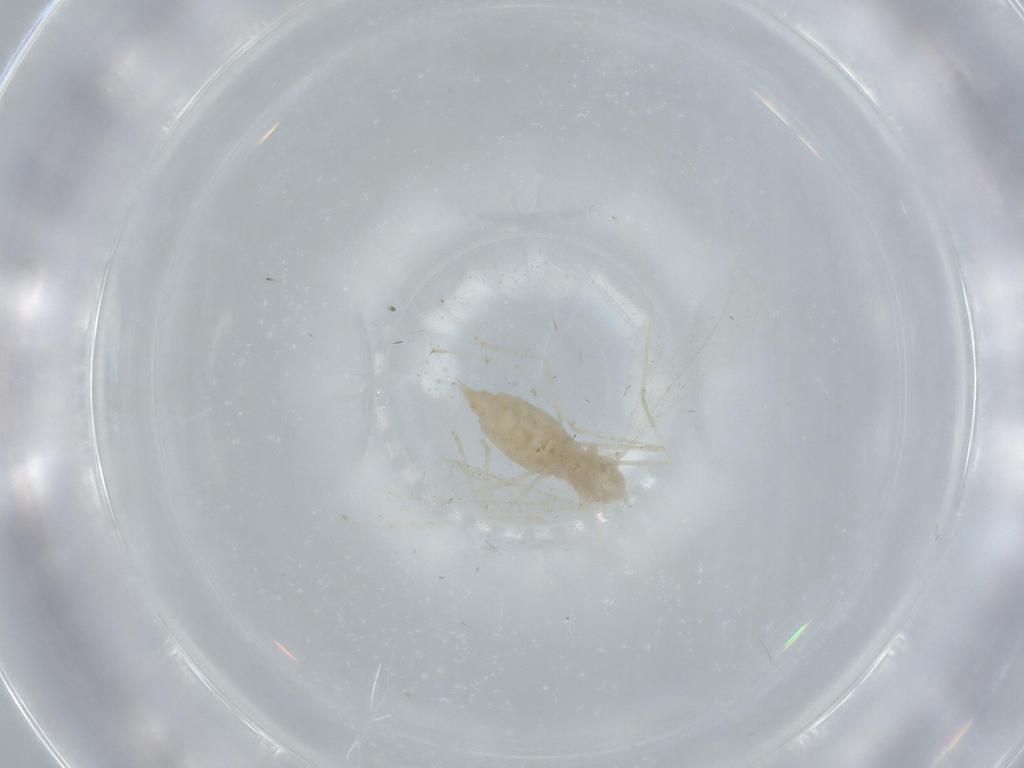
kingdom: Animalia
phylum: Arthropoda
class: Insecta
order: Diptera
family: Cecidomyiidae
